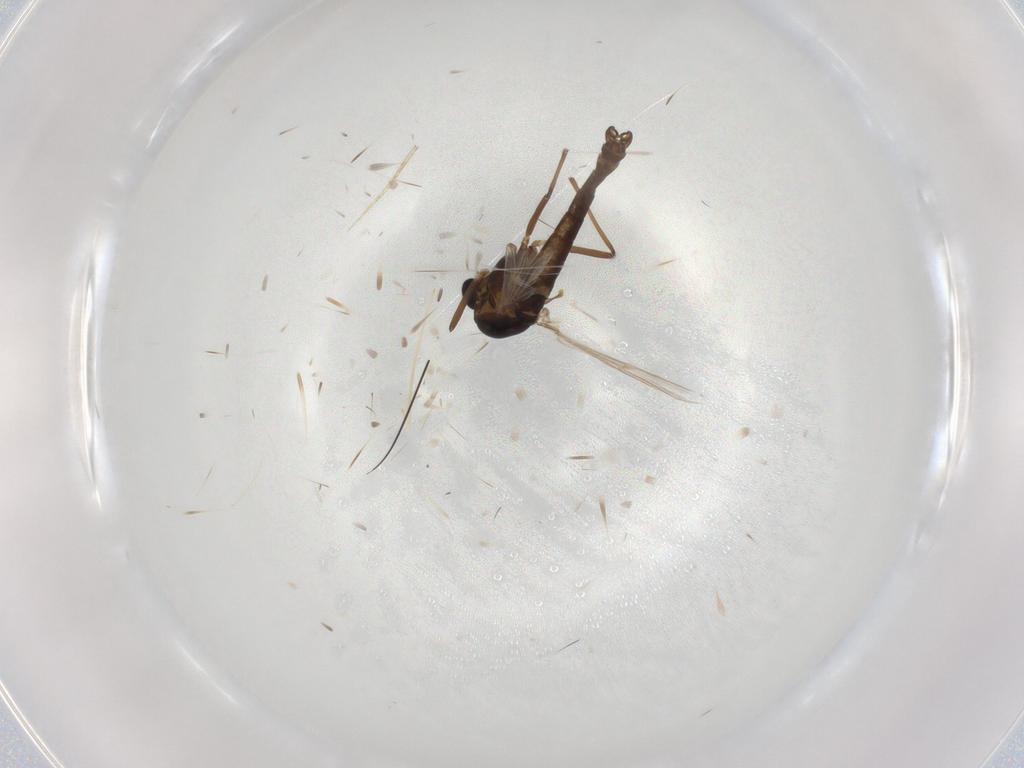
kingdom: Animalia
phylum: Arthropoda
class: Insecta
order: Diptera
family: Chironomidae
